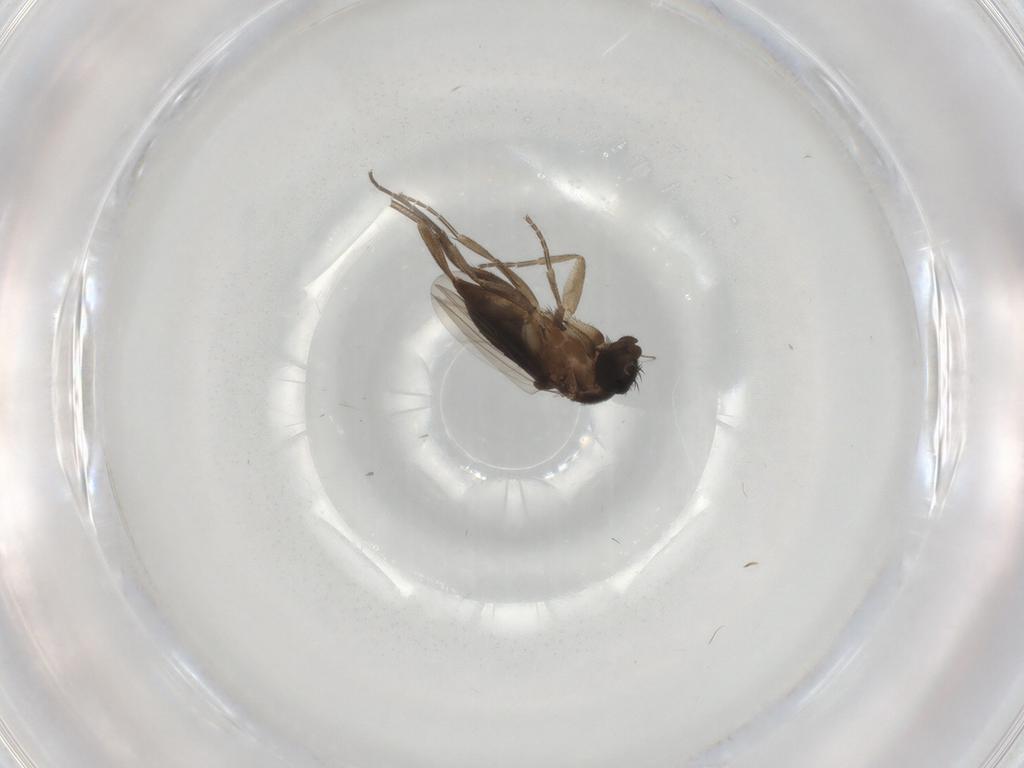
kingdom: Animalia
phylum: Arthropoda
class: Insecta
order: Diptera
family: Phoridae
